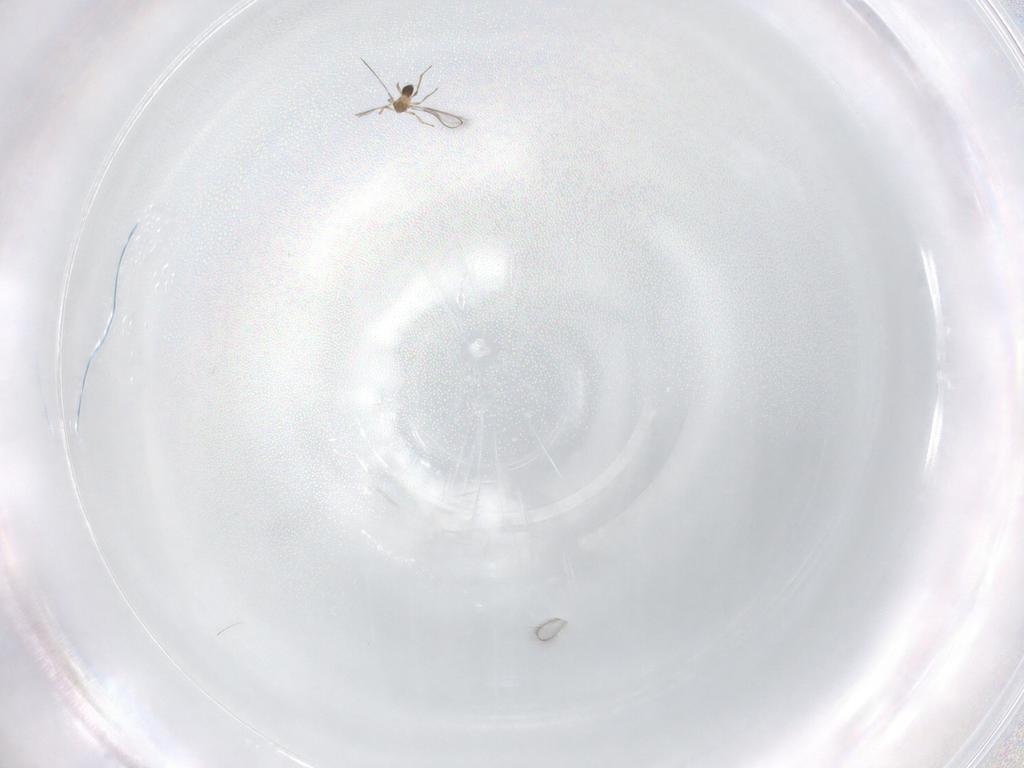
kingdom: Animalia
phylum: Arthropoda
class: Insecta
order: Hymenoptera
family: Mymaridae
